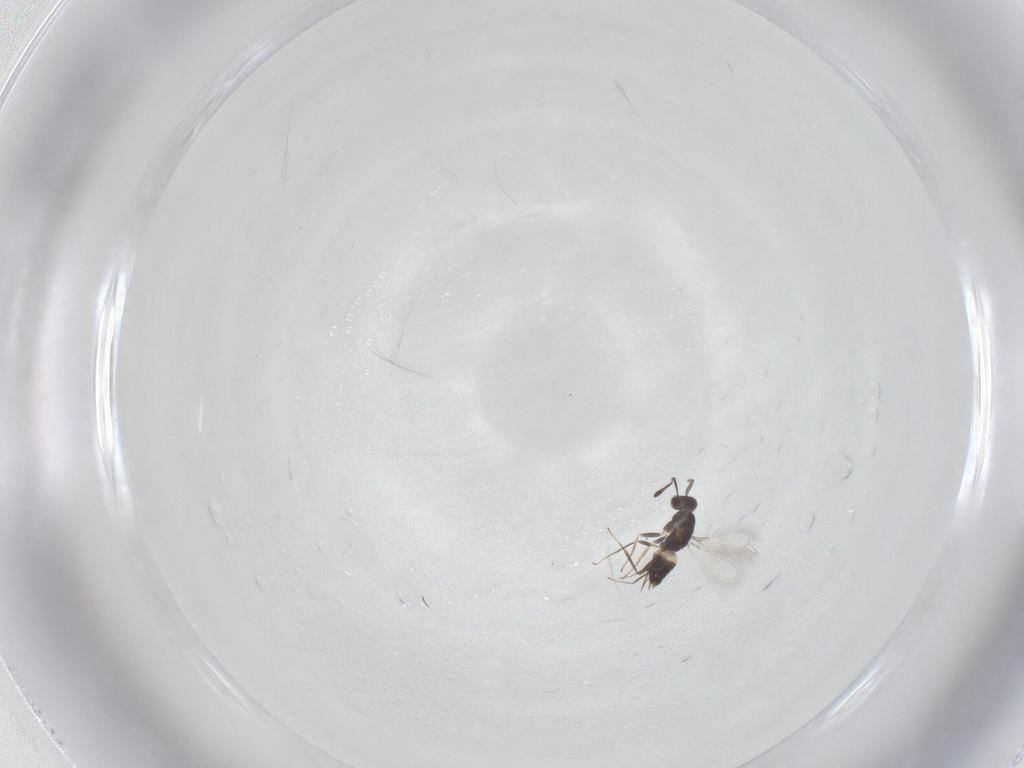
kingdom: Animalia
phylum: Arthropoda
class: Insecta
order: Hymenoptera
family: Mymaridae
